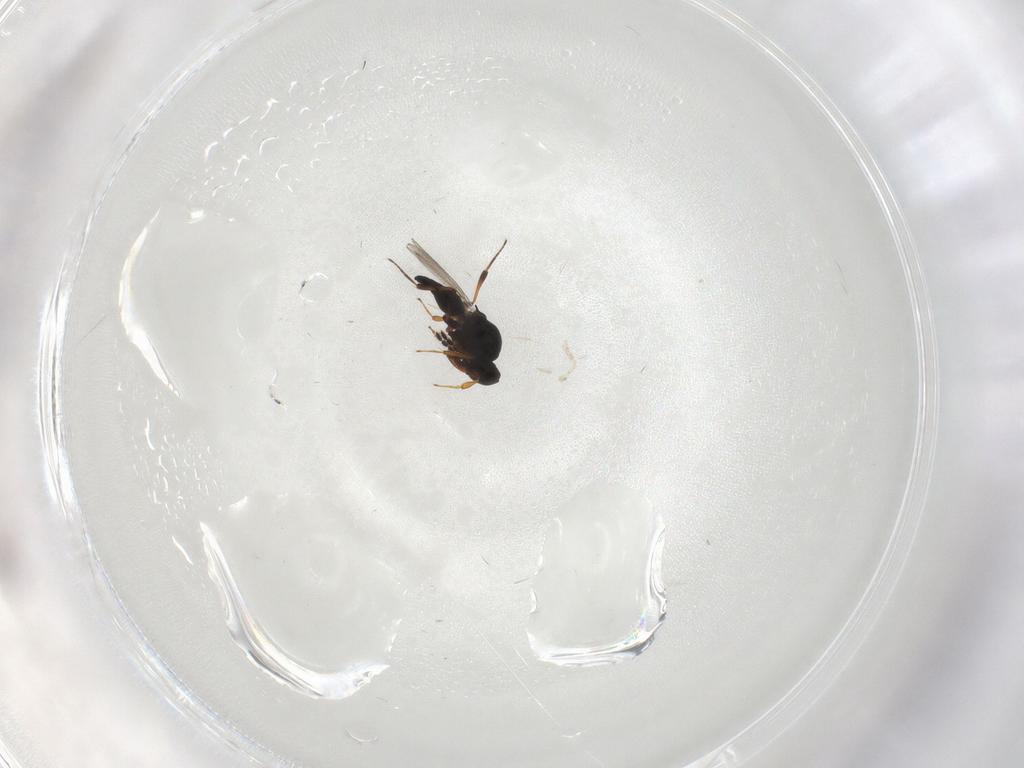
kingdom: Animalia
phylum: Arthropoda
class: Insecta
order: Hymenoptera
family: Platygastridae
